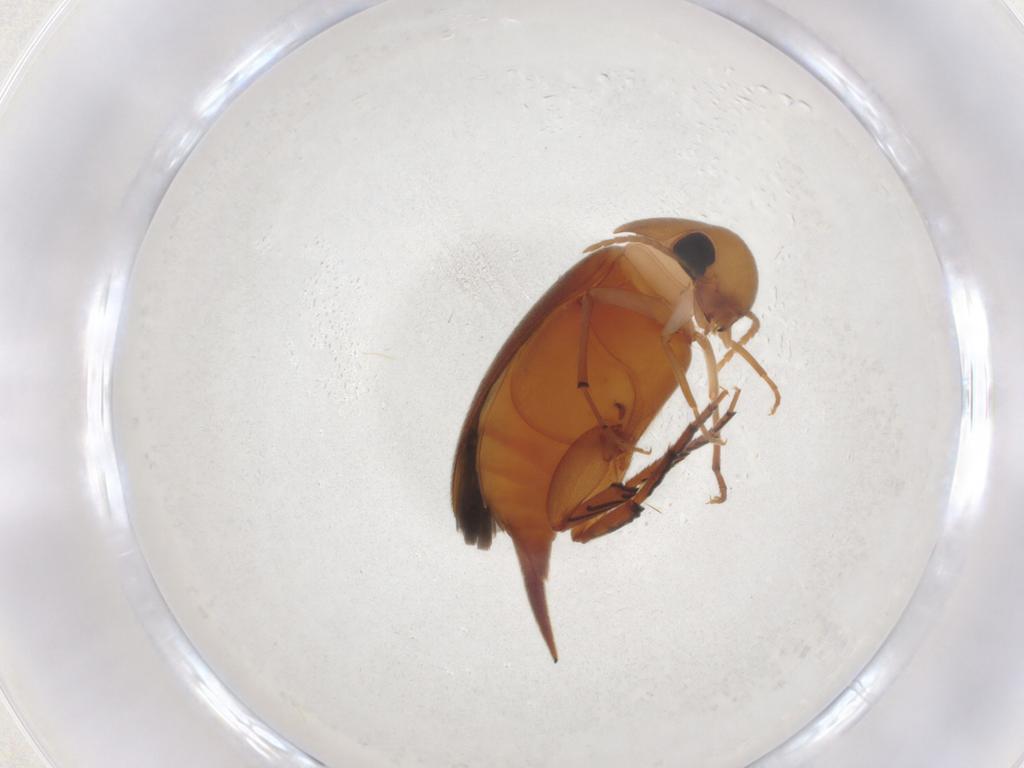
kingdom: Animalia
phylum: Arthropoda
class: Insecta
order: Coleoptera
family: Mordellidae
